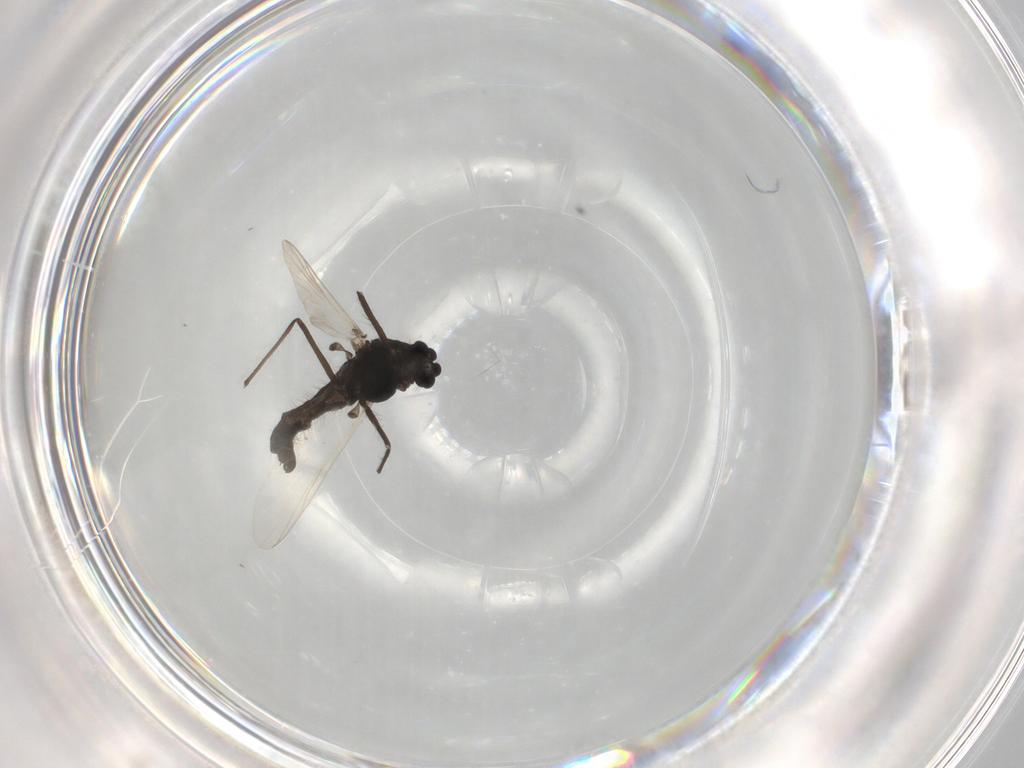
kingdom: Animalia
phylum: Arthropoda
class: Insecta
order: Diptera
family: Chironomidae
